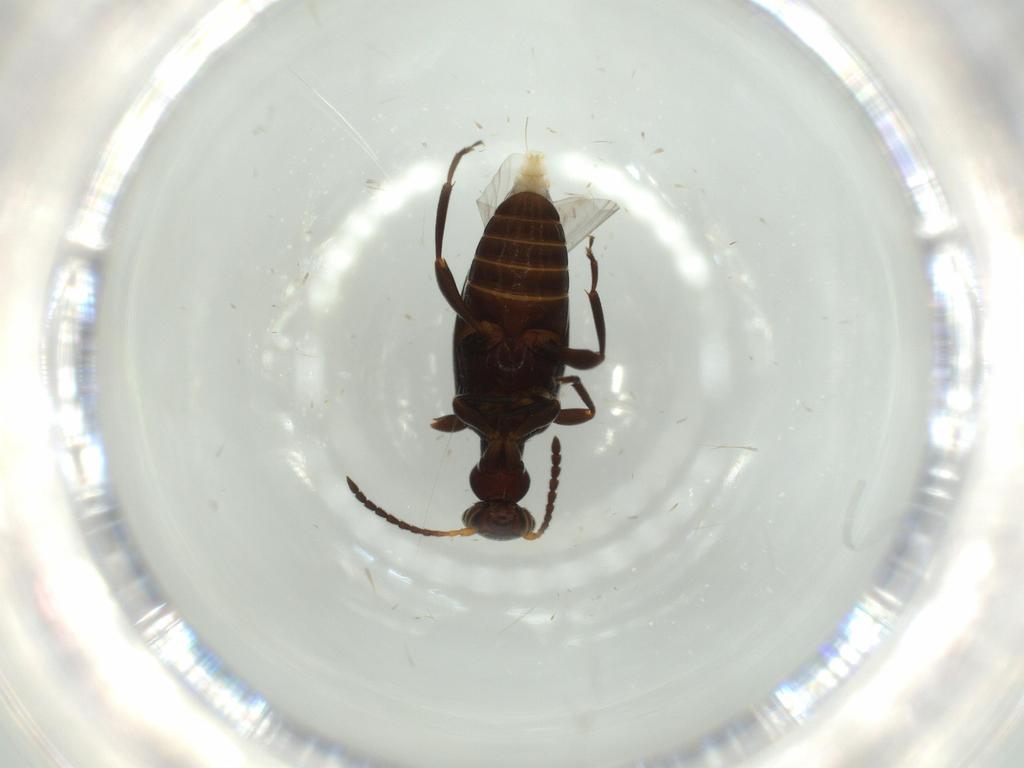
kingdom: Animalia
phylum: Arthropoda
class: Insecta
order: Coleoptera
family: Anthicidae
